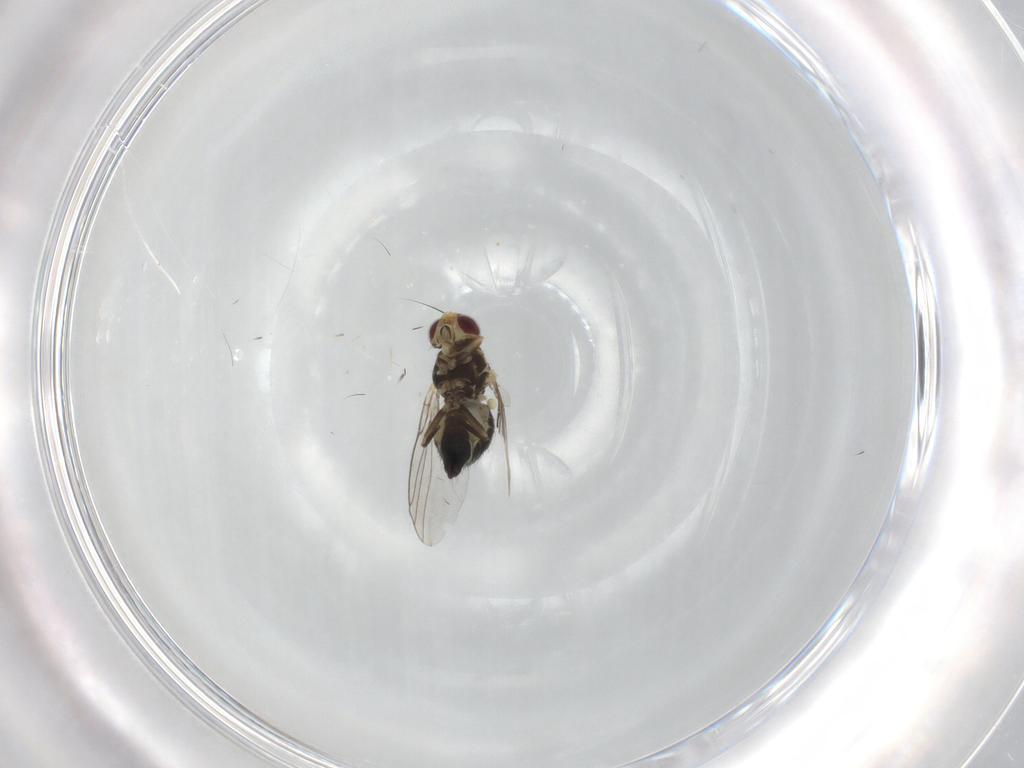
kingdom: Animalia
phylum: Arthropoda
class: Insecta
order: Diptera
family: Agromyzidae
